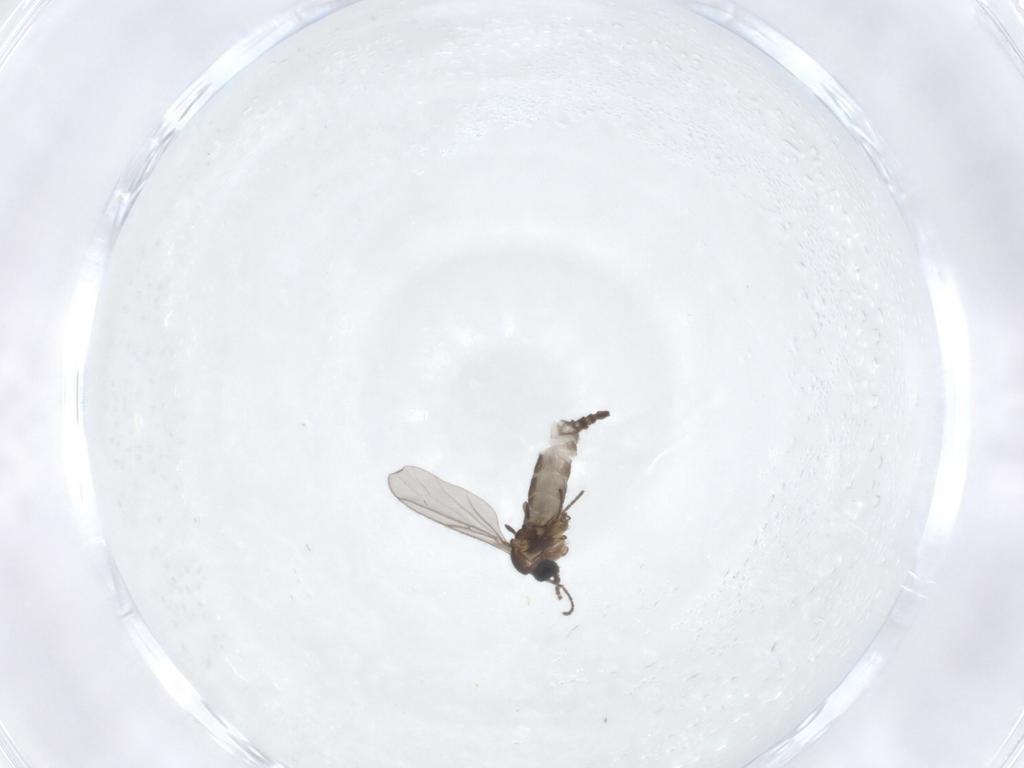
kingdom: Animalia
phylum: Arthropoda
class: Insecta
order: Diptera
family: Sciaridae
